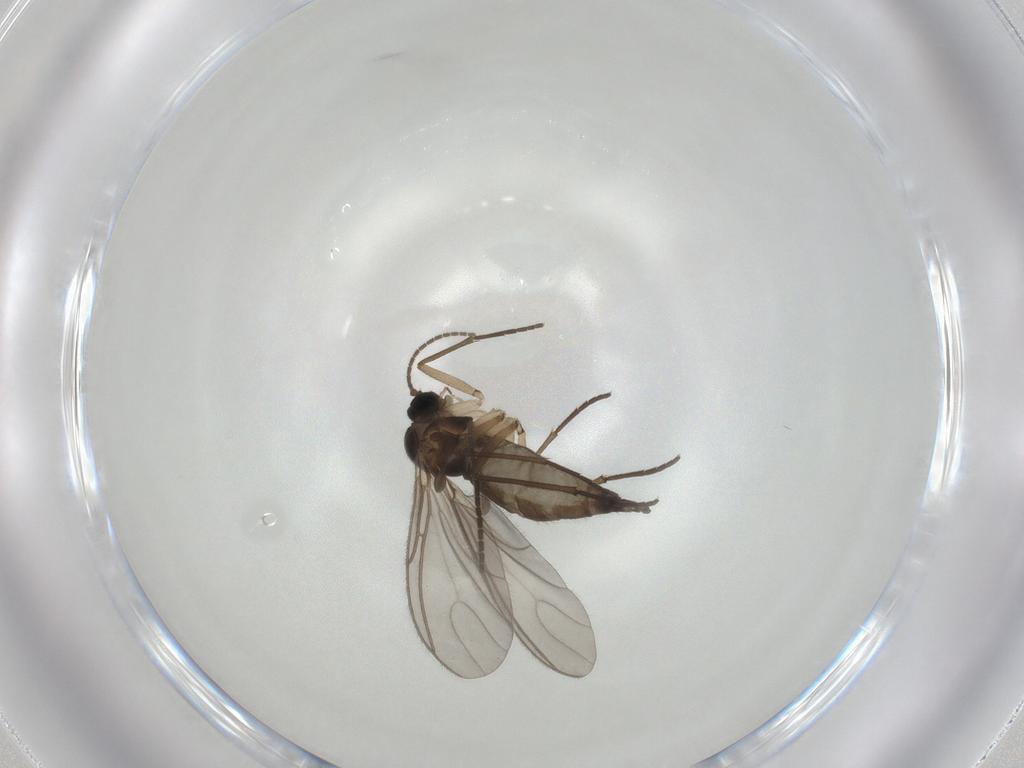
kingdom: Animalia
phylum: Arthropoda
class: Insecta
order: Diptera
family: Sciaridae
